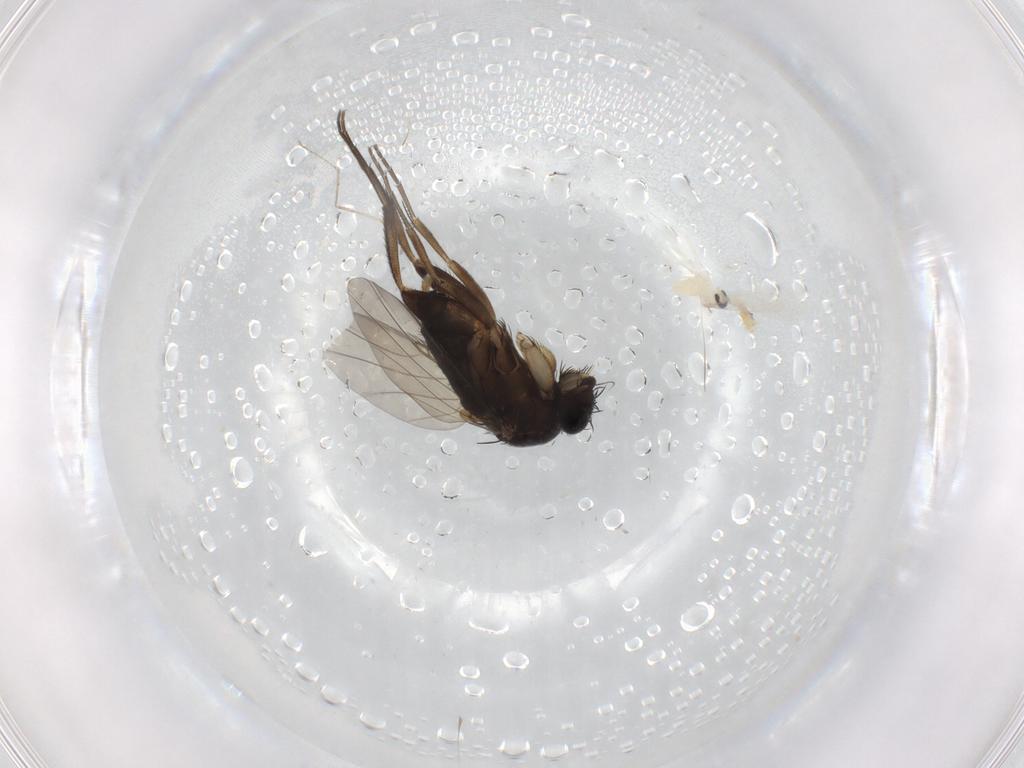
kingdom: Animalia
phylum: Arthropoda
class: Insecta
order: Diptera
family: Phoridae
